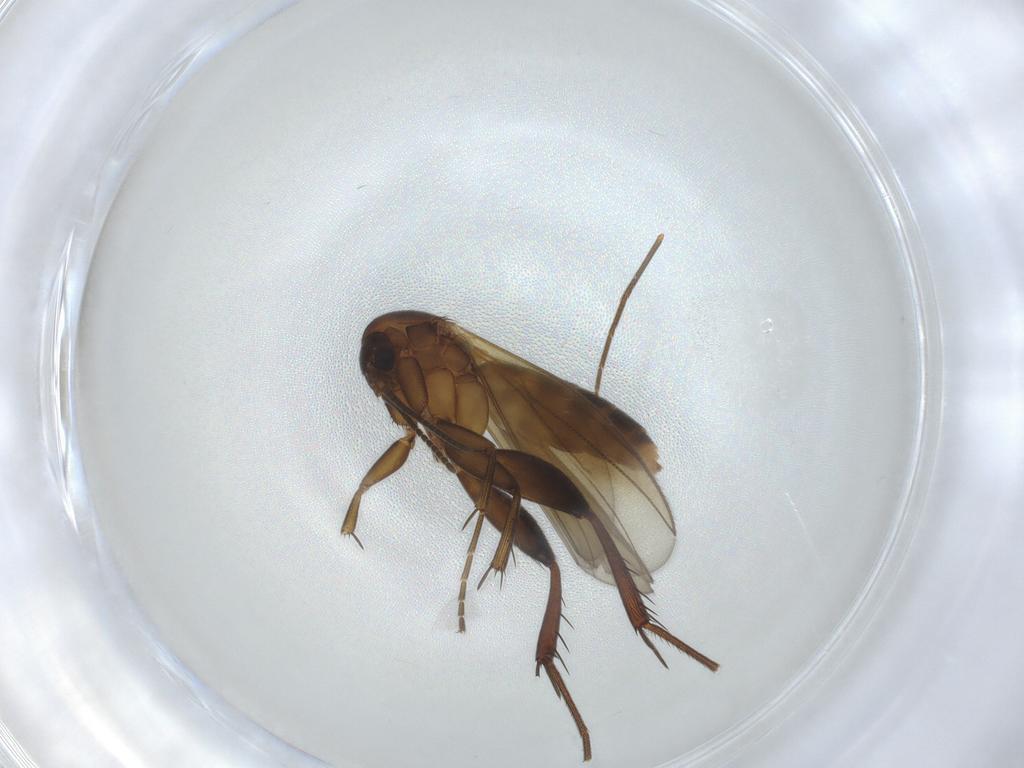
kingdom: Animalia
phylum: Arthropoda
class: Insecta
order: Diptera
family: Mycetophilidae
